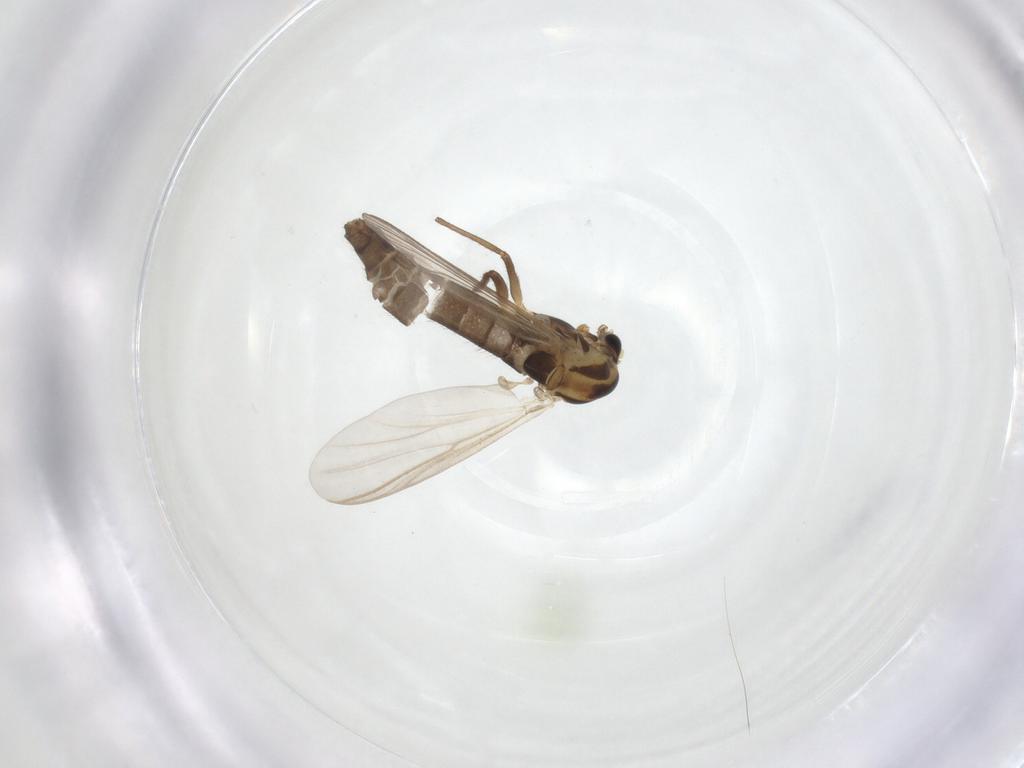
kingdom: Animalia
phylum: Arthropoda
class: Insecta
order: Diptera
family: Chironomidae
